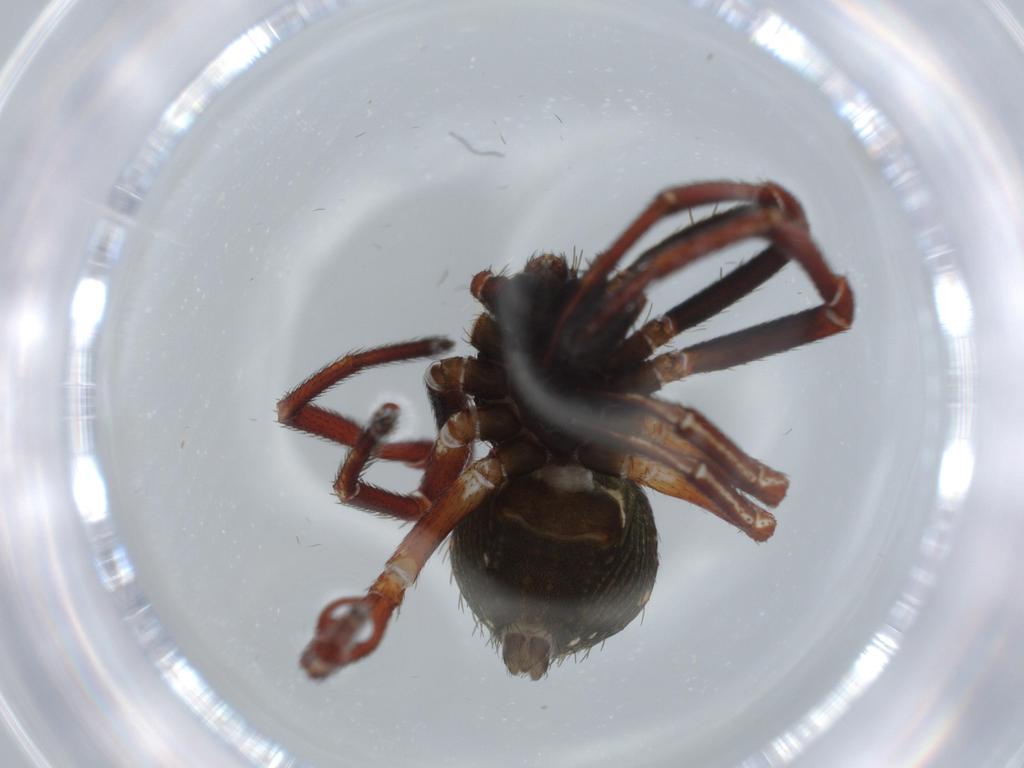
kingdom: Animalia
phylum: Arthropoda
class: Arachnida
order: Araneae
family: Thomisidae
